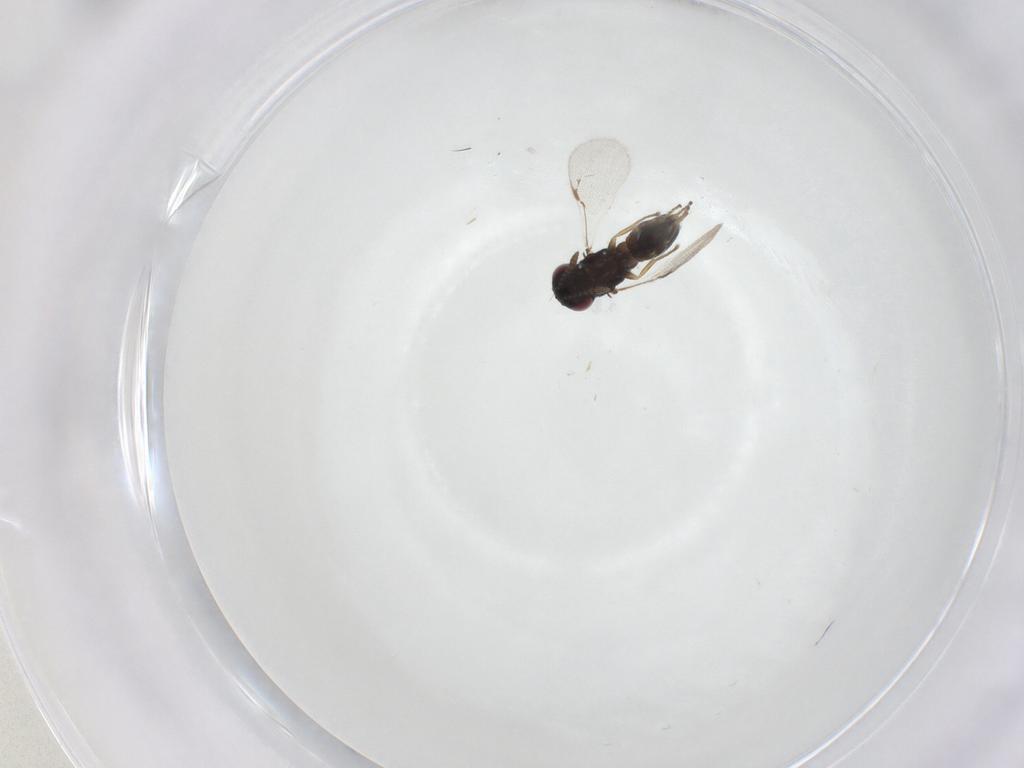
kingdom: Animalia
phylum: Arthropoda
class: Insecta
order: Hymenoptera
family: Eurytomidae
